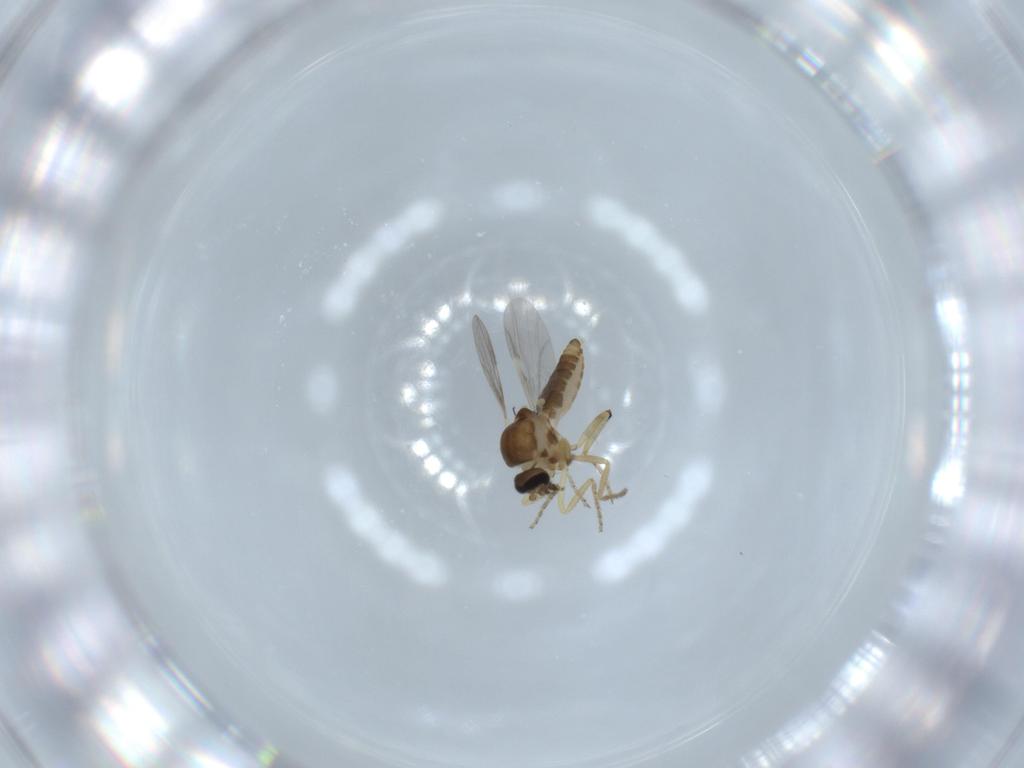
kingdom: Animalia
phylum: Arthropoda
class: Insecta
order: Diptera
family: Ceratopogonidae
